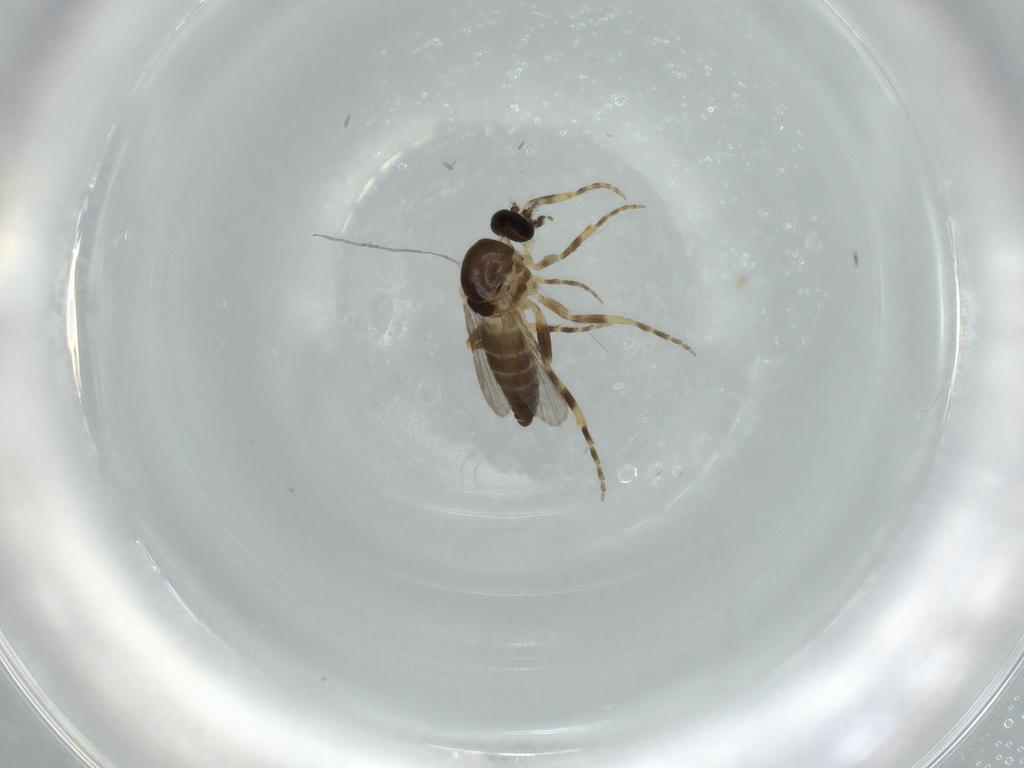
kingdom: Animalia
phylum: Arthropoda
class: Insecta
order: Diptera
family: Ceratopogonidae
